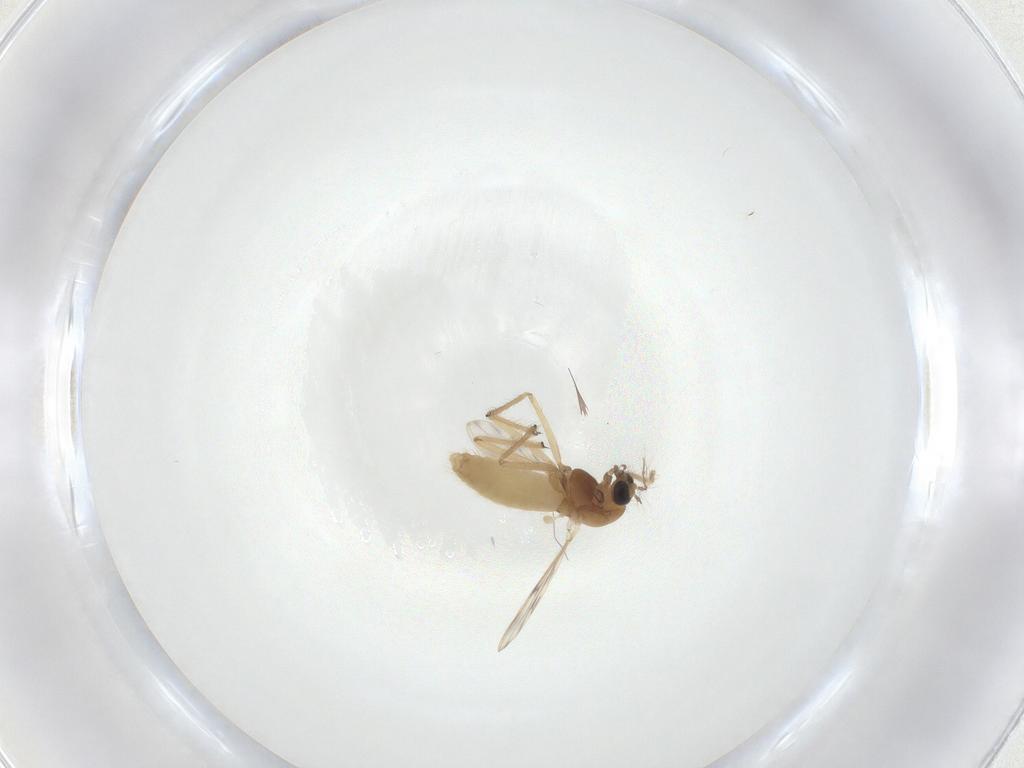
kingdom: Animalia
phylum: Arthropoda
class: Insecta
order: Diptera
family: Chironomidae
